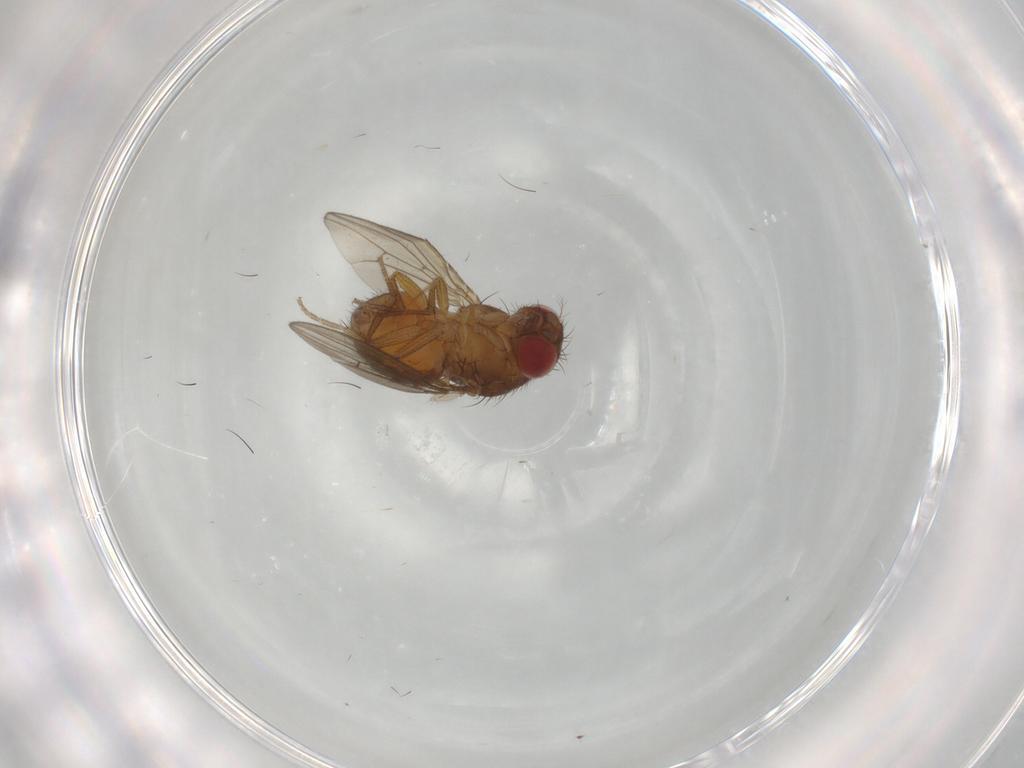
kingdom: Animalia
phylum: Arthropoda
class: Insecta
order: Diptera
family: Drosophilidae
